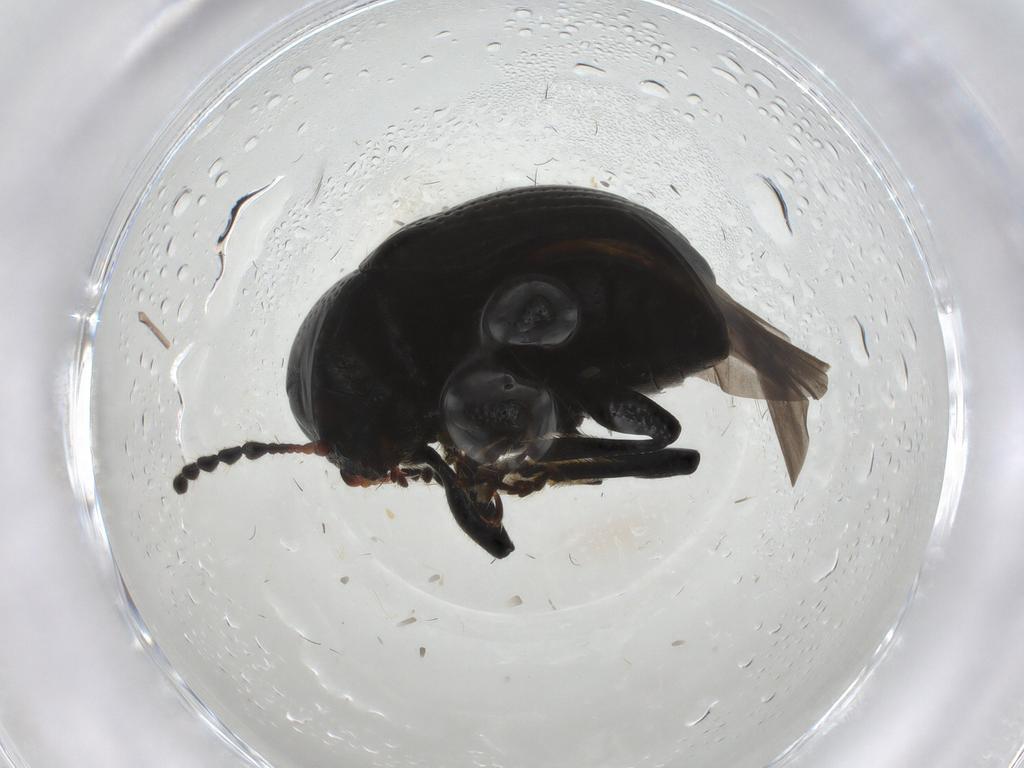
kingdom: Animalia
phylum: Arthropoda
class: Insecta
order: Coleoptera
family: Chrysomelidae
